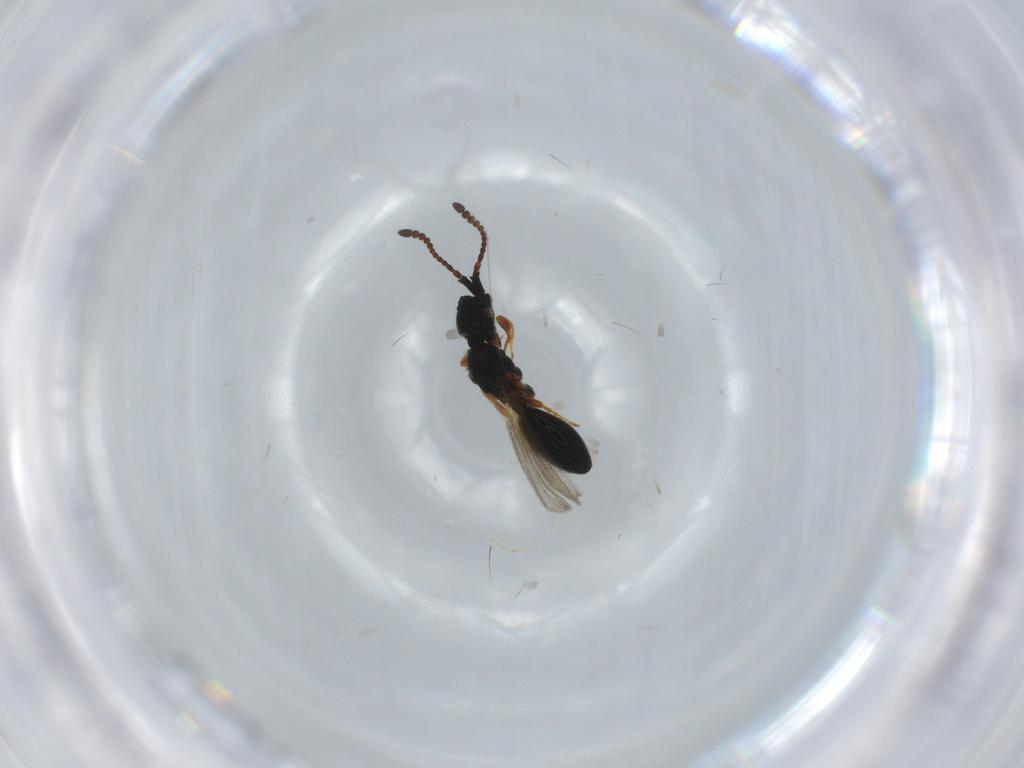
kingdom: Animalia
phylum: Arthropoda
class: Insecta
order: Hymenoptera
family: Diapriidae
